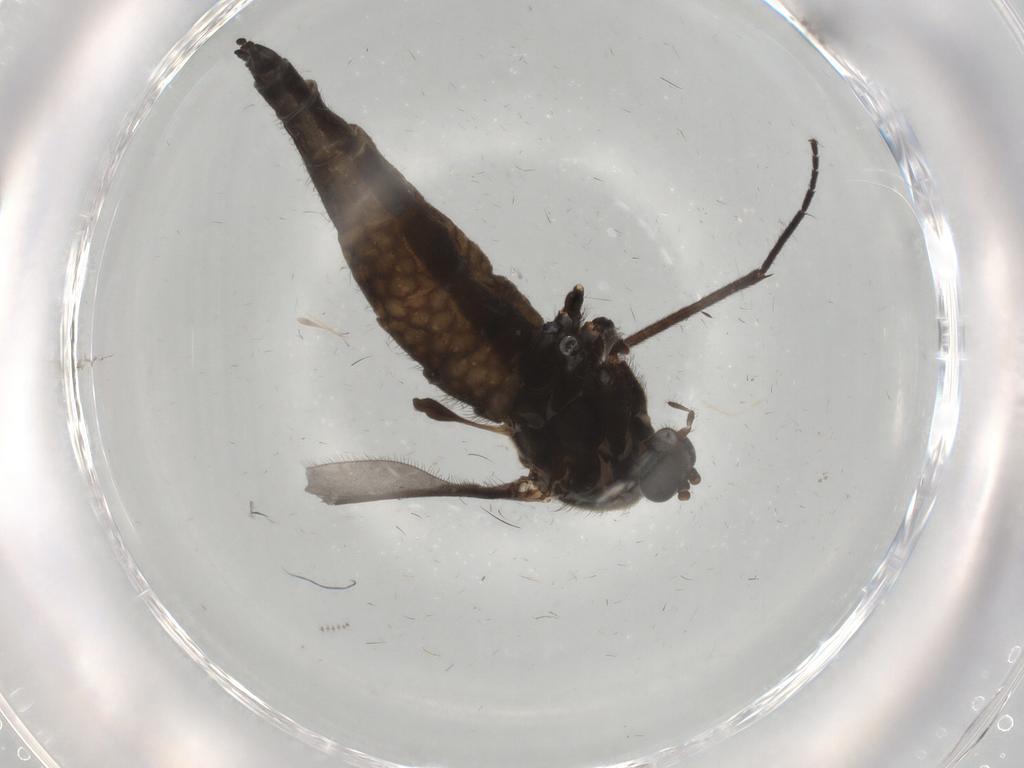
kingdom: Animalia
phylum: Arthropoda
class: Insecta
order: Diptera
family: Sciaridae
